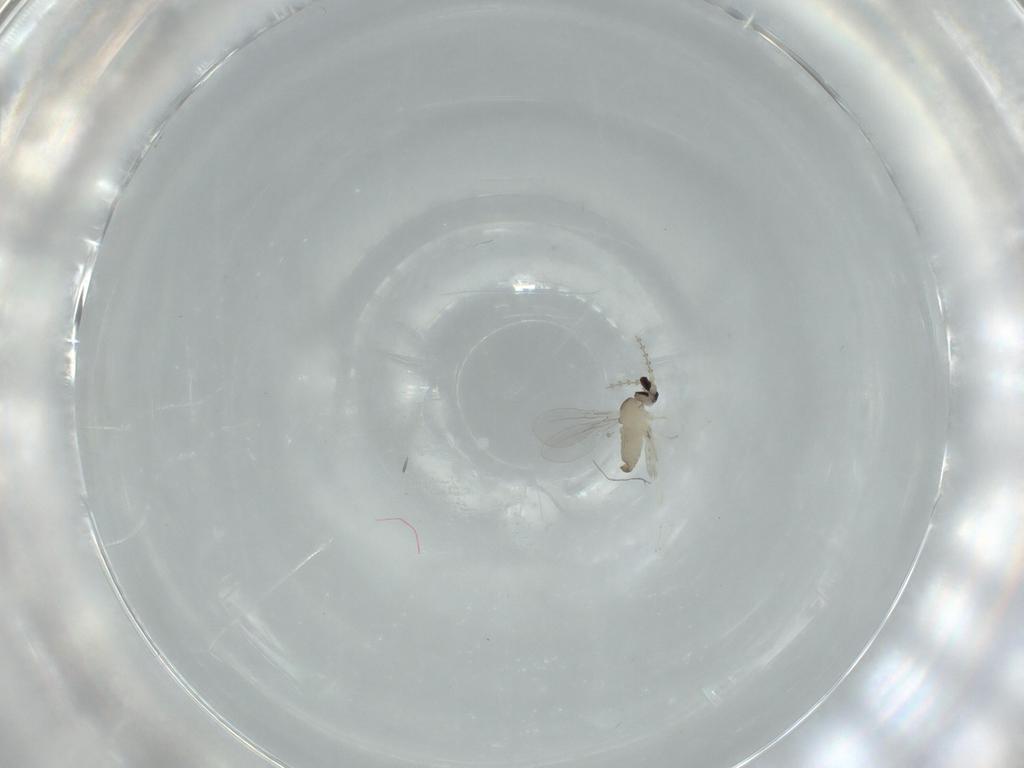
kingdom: Animalia
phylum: Arthropoda
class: Insecta
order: Diptera
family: Cecidomyiidae
